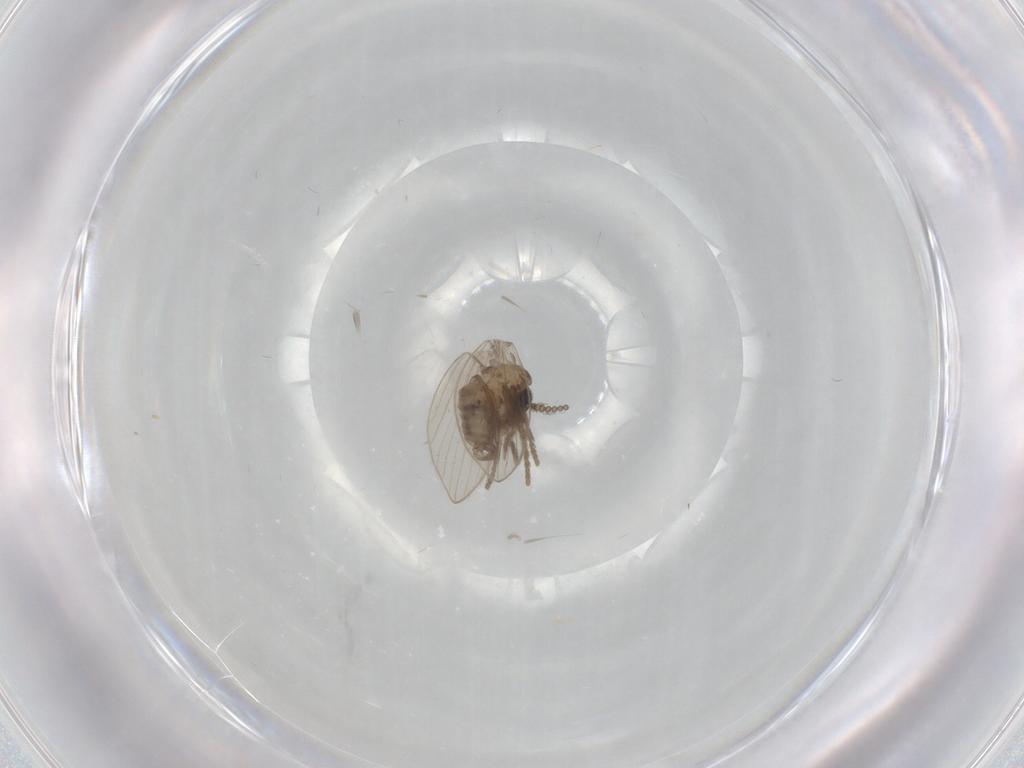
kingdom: Animalia
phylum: Arthropoda
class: Insecta
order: Diptera
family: Psychodidae
